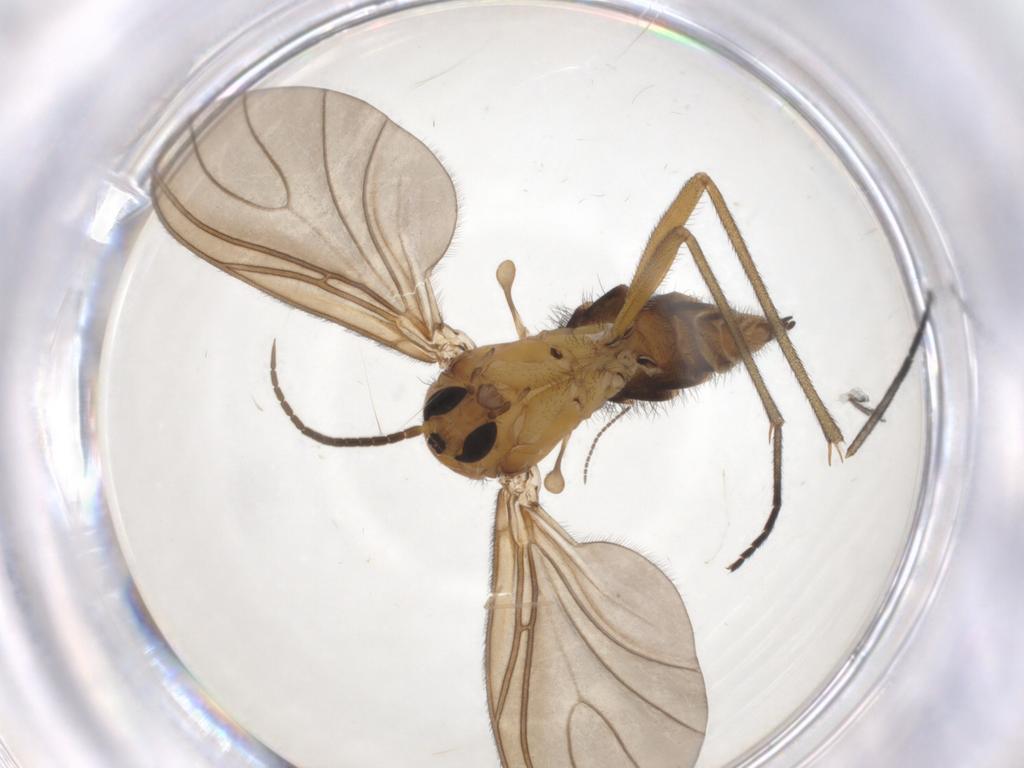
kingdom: Animalia
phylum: Arthropoda
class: Insecta
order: Diptera
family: Sciaridae
